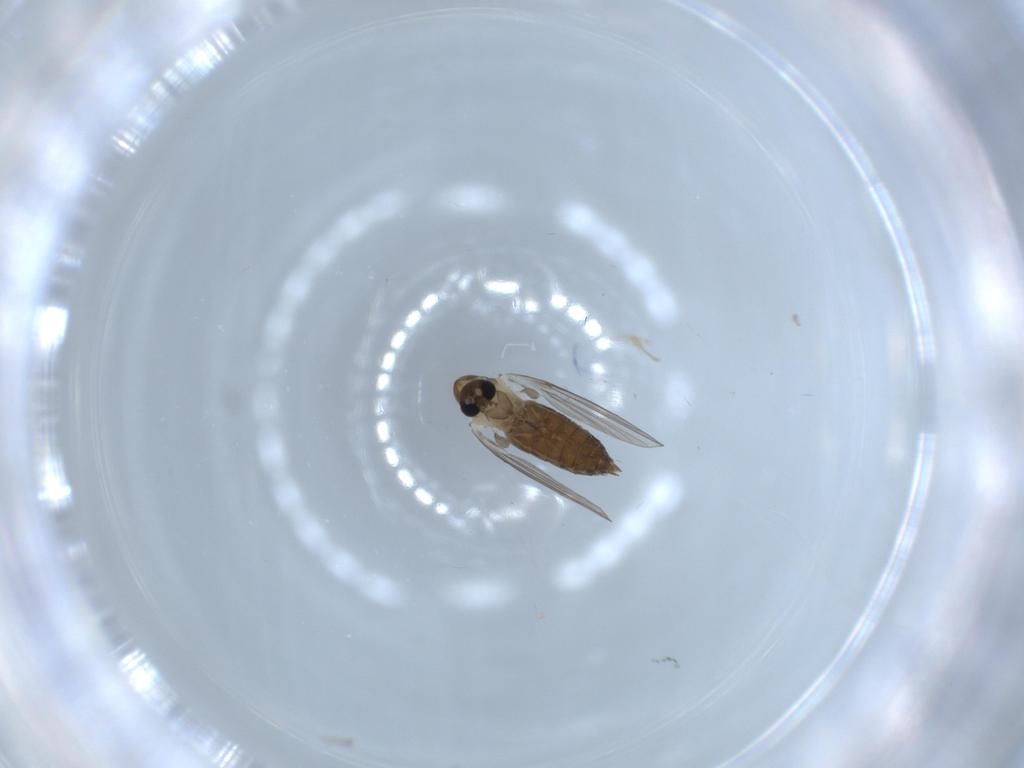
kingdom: Animalia
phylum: Arthropoda
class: Insecta
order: Diptera
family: Psychodidae
